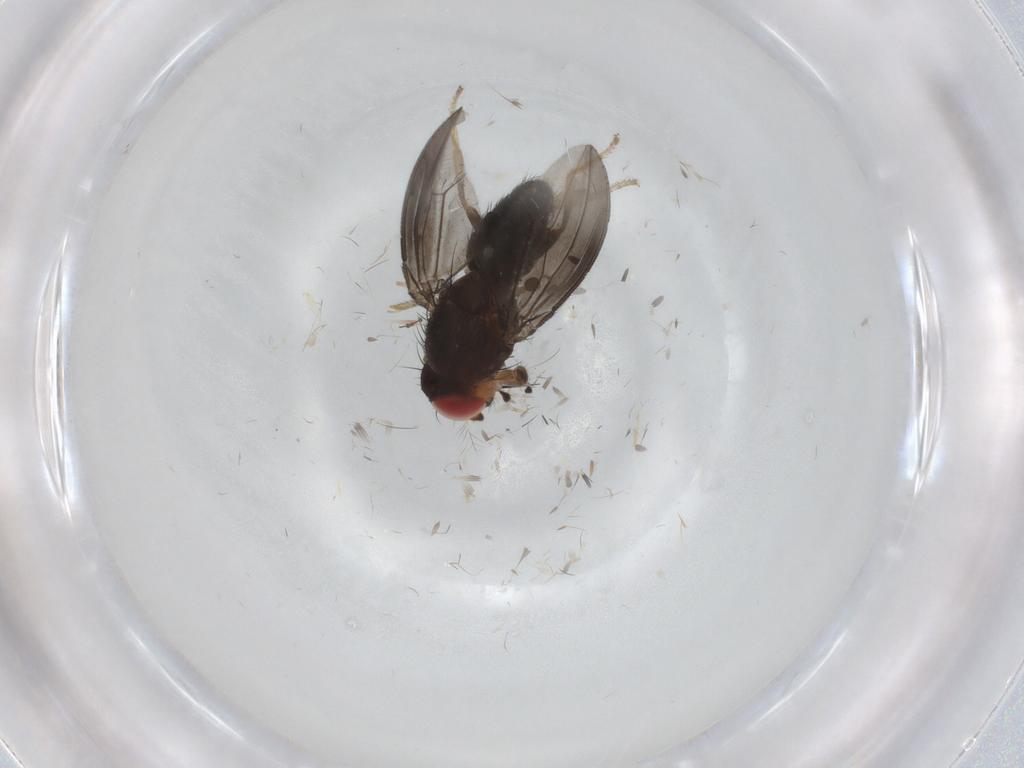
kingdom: Animalia
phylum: Arthropoda
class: Insecta
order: Diptera
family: Drosophilidae
